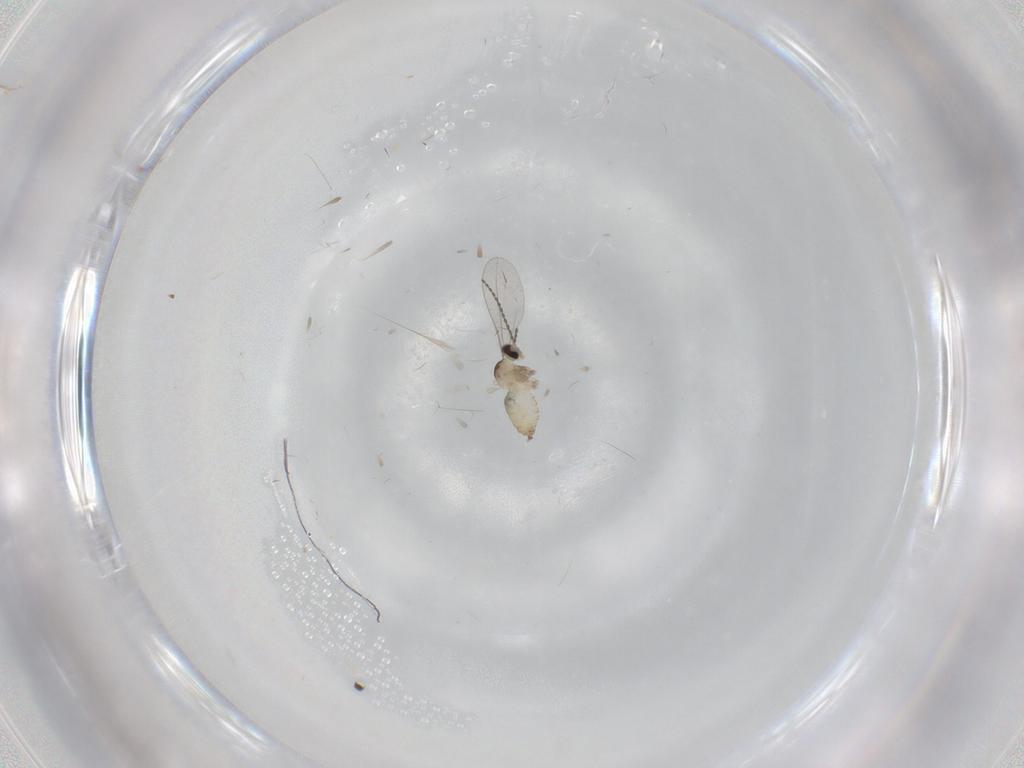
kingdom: Animalia
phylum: Arthropoda
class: Insecta
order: Diptera
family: Cecidomyiidae
